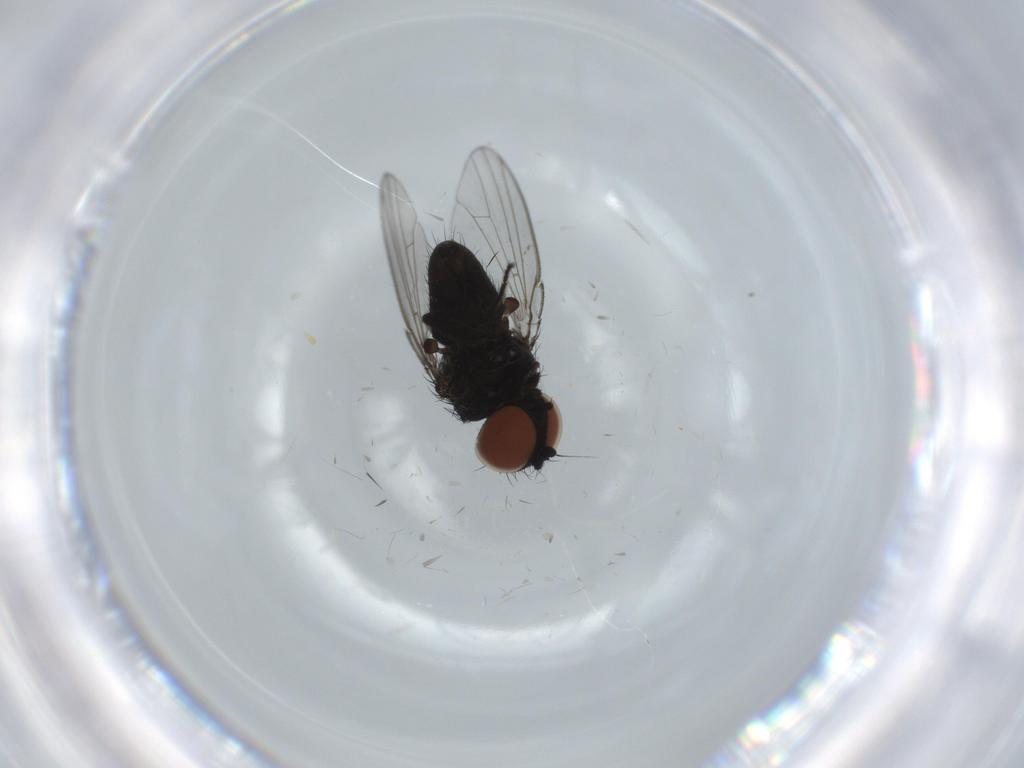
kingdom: Animalia
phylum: Arthropoda
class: Insecta
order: Diptera
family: Milichiidae
